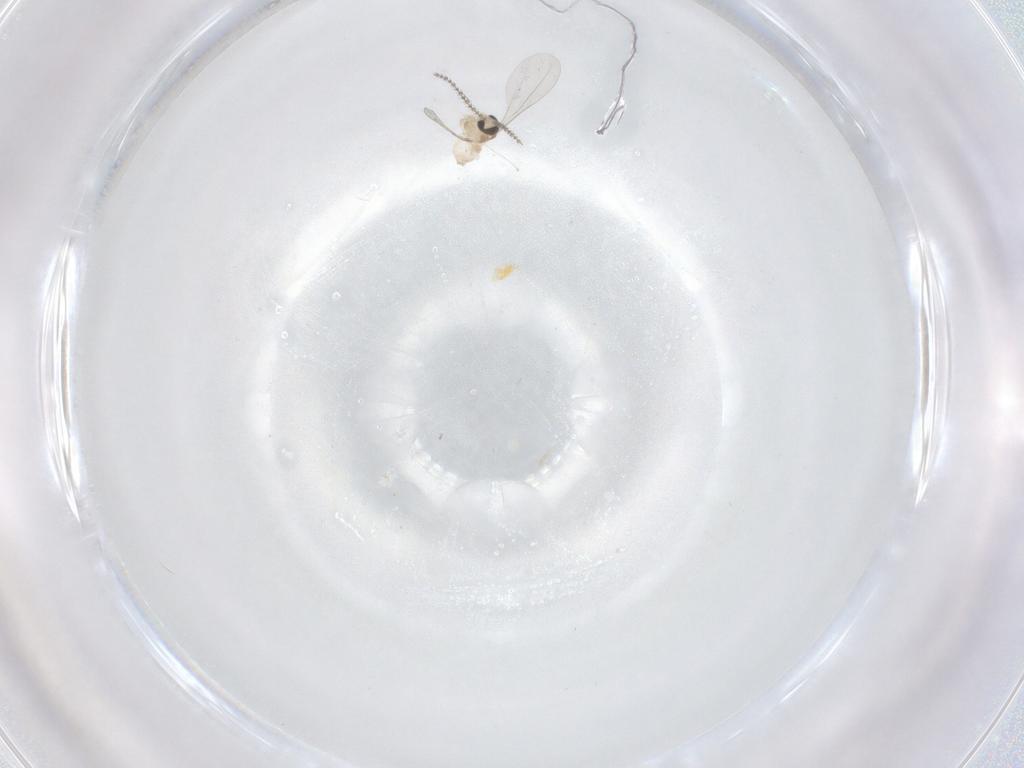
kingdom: Animalia
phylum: Arthropoda
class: Insecta
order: Diptera
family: Cecidomyiidae
